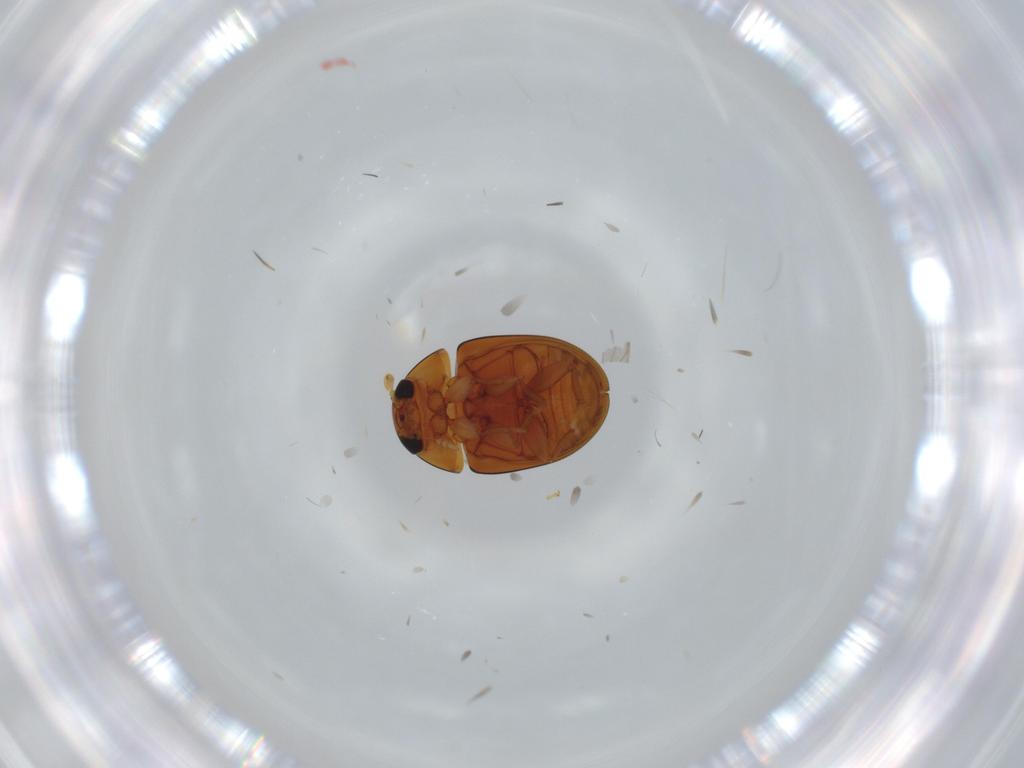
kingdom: Animalia
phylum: Arthropoda
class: Insecta
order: Coleoptera
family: Phalacridae
